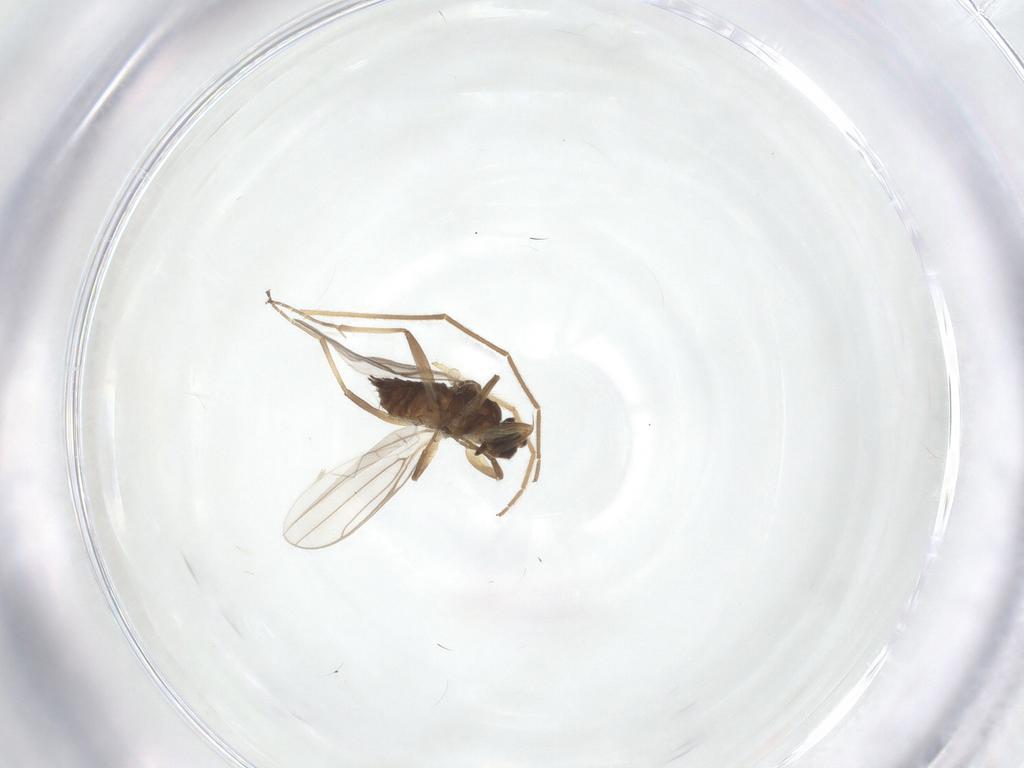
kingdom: Animalia
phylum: Arthropoda
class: Insecta
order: Diptera
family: Hybotidae
